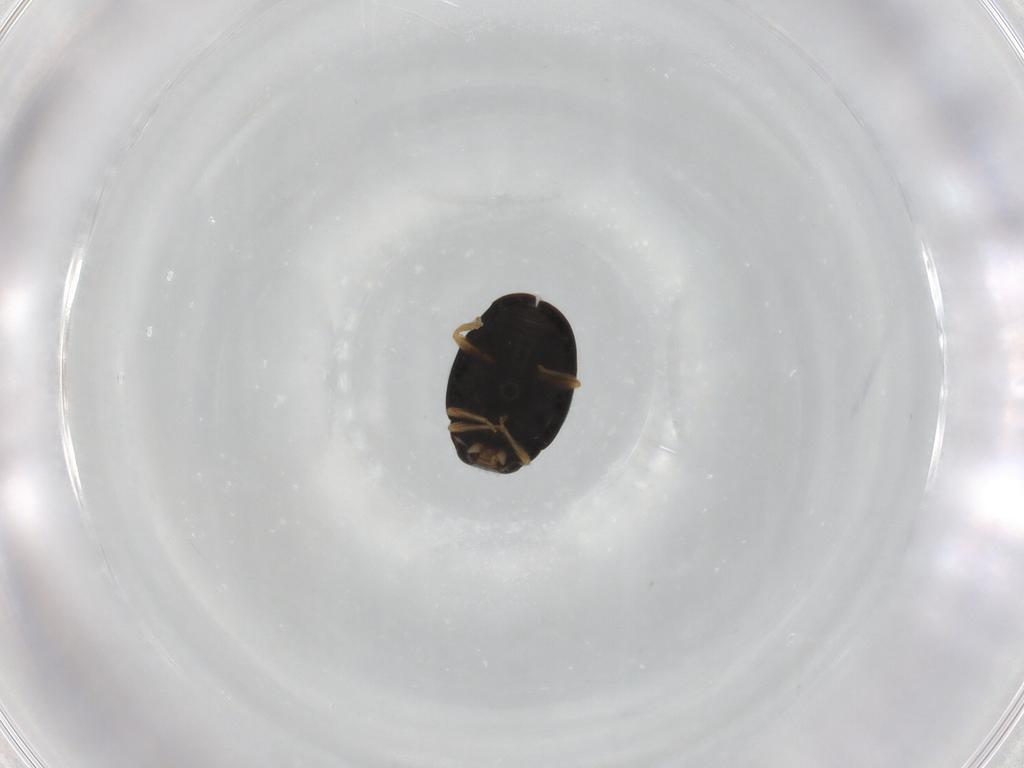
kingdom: Animalia
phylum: Arthropoda
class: Insecta
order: Coleoptera
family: Coccinellidae
